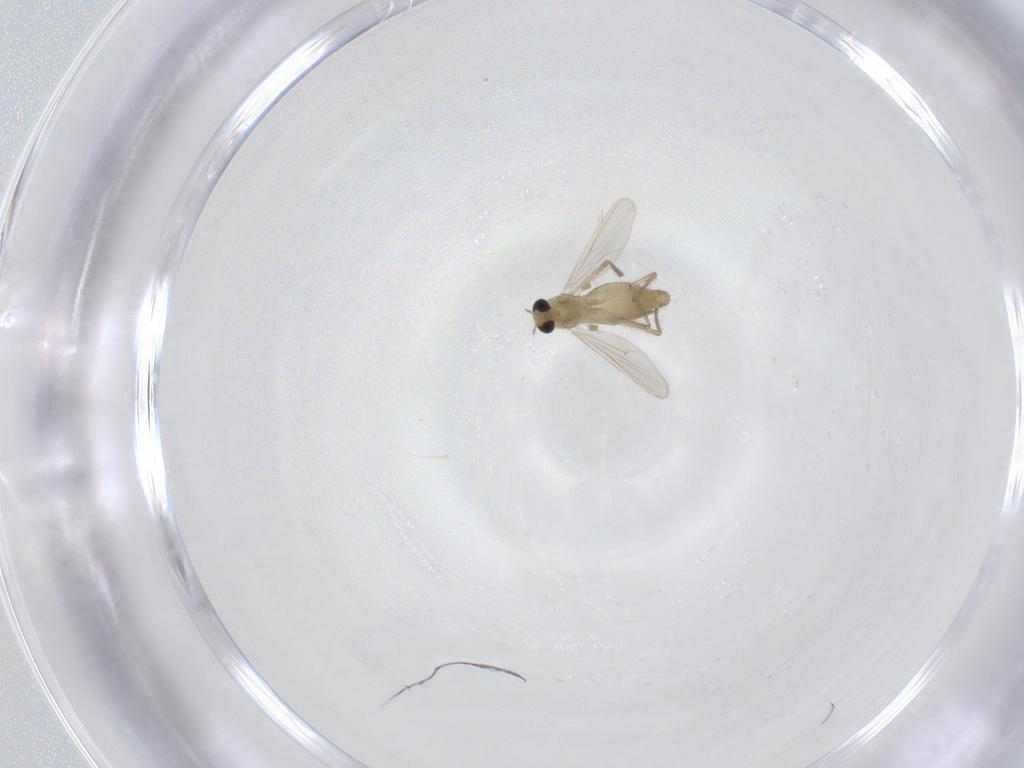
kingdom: Animalia
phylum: Arthropoda
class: Insecta
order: Diptera
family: Chironomidae
